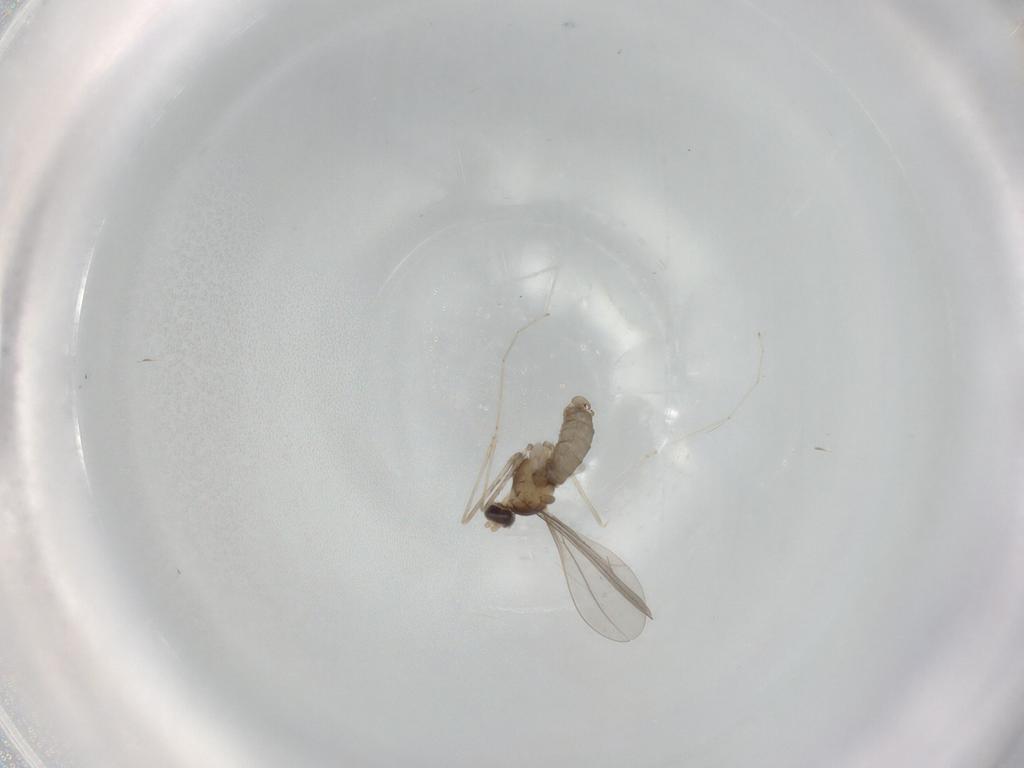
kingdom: Animalia
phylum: Arthropoda
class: Insecta
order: Diptera
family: Cecidomyiidae
